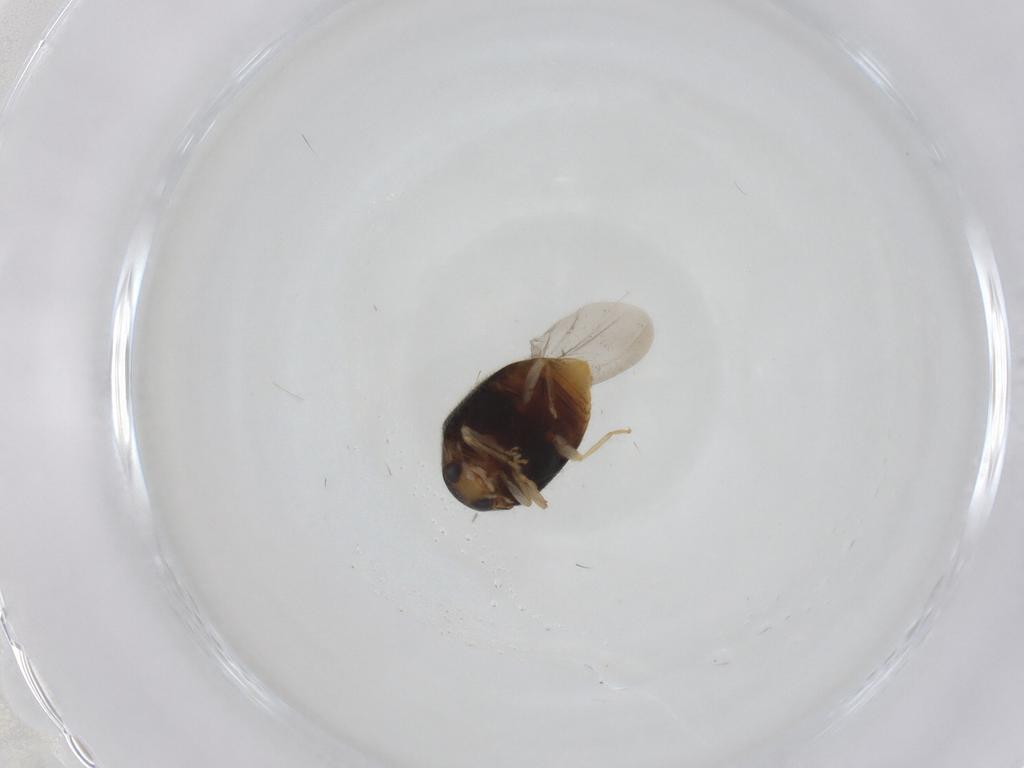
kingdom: Animalia
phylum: Arthropoda
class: Insecta
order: Coleoptera
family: Coccinellidae
